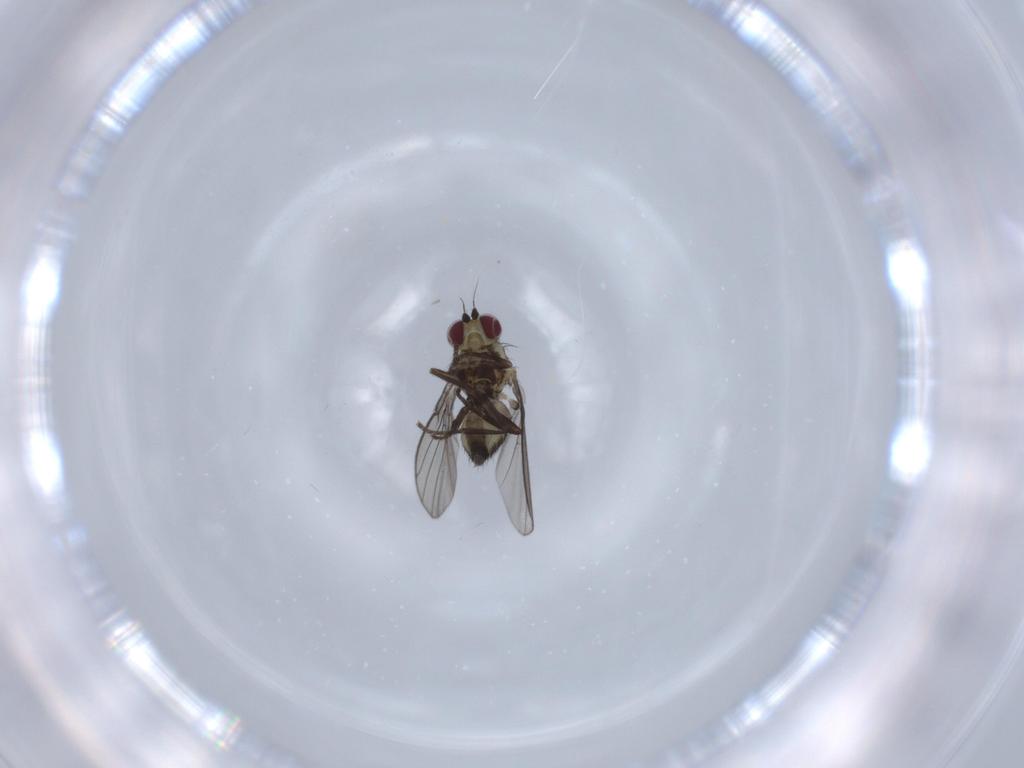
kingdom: Animalia
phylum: Arthropoda
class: Insecta
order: Diptera
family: Agromyzidae
